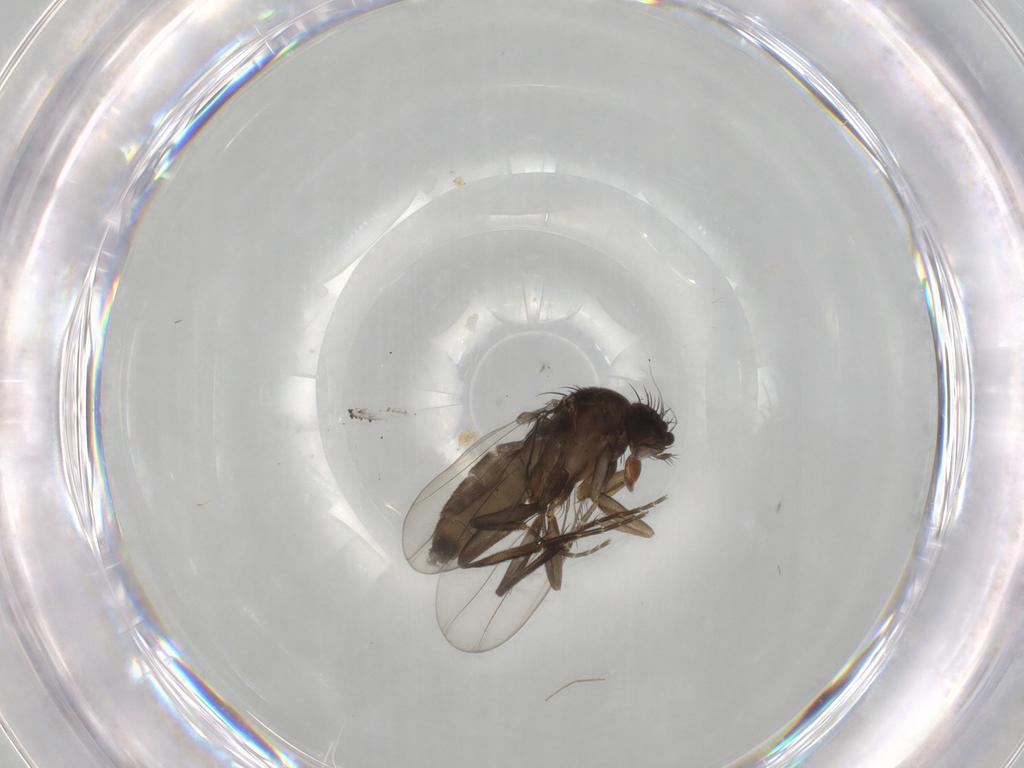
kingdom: Animalia
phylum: Arthropoda
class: Insecta
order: Diptera
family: Phoridae
